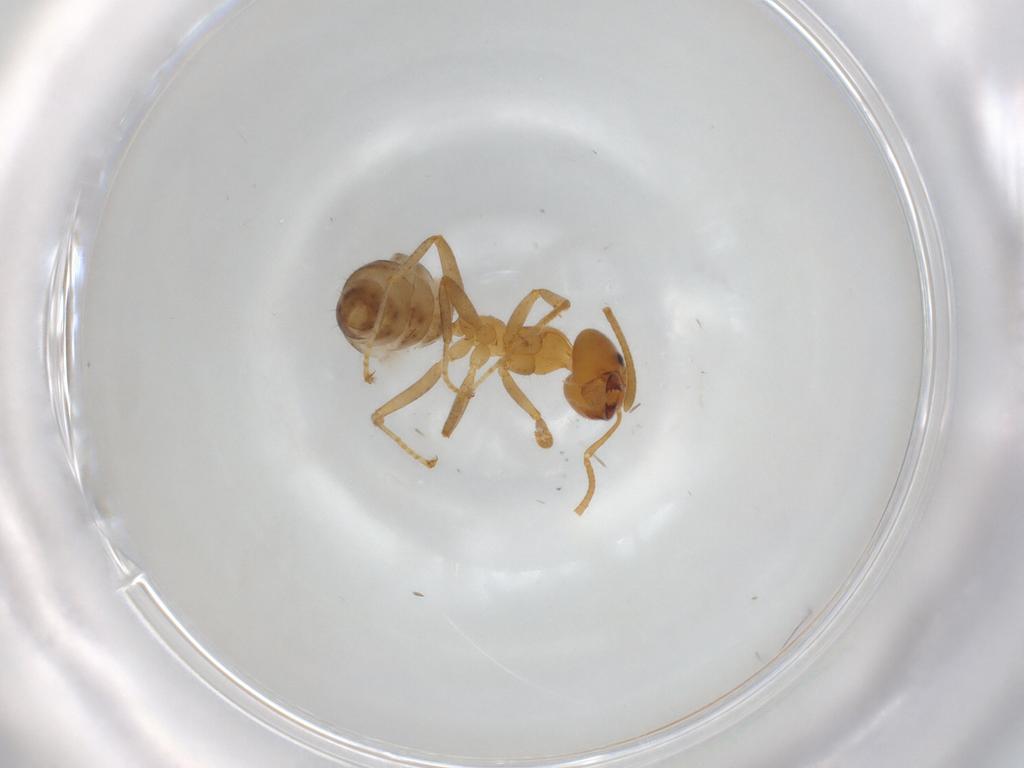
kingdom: Animalia
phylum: Arthropoda
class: Insecta
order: Hymenoptera
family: Formicidae
